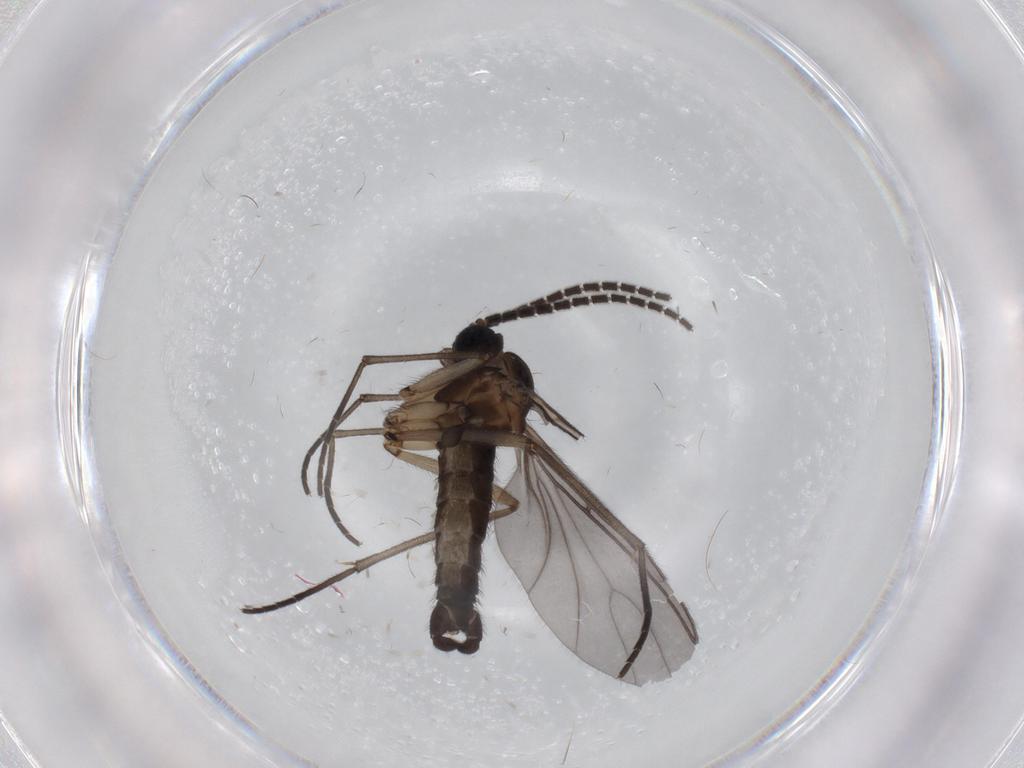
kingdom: Animalia
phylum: Arthropoda
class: Insecta
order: Diptera
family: Sciaridae
